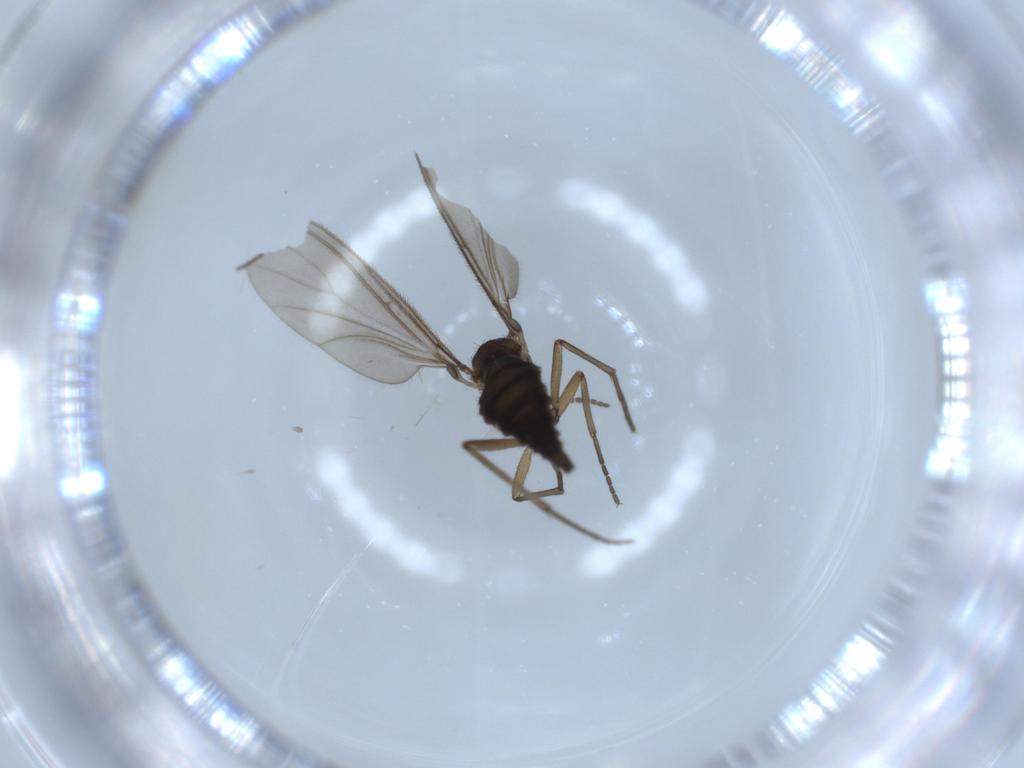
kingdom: Animalia
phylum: Arthropoda
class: Insecta
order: Diptera
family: Sciaridae
